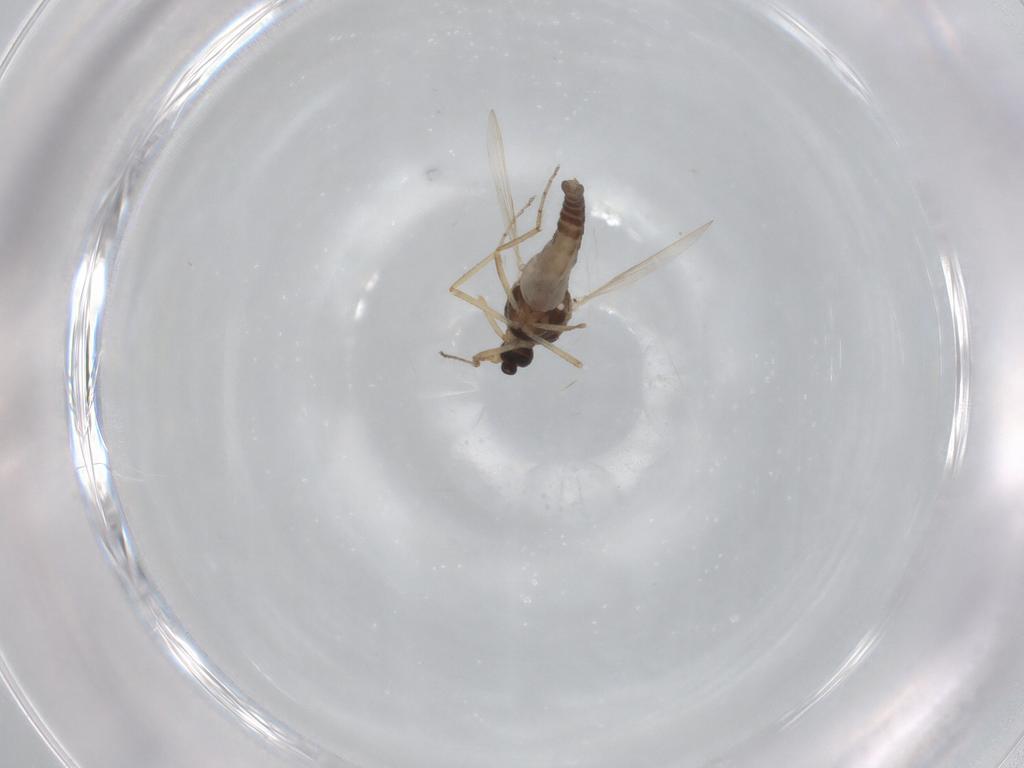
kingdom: Animalia
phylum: Arthropoda
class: Insecta
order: Diptera
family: Ceratopogonidae
